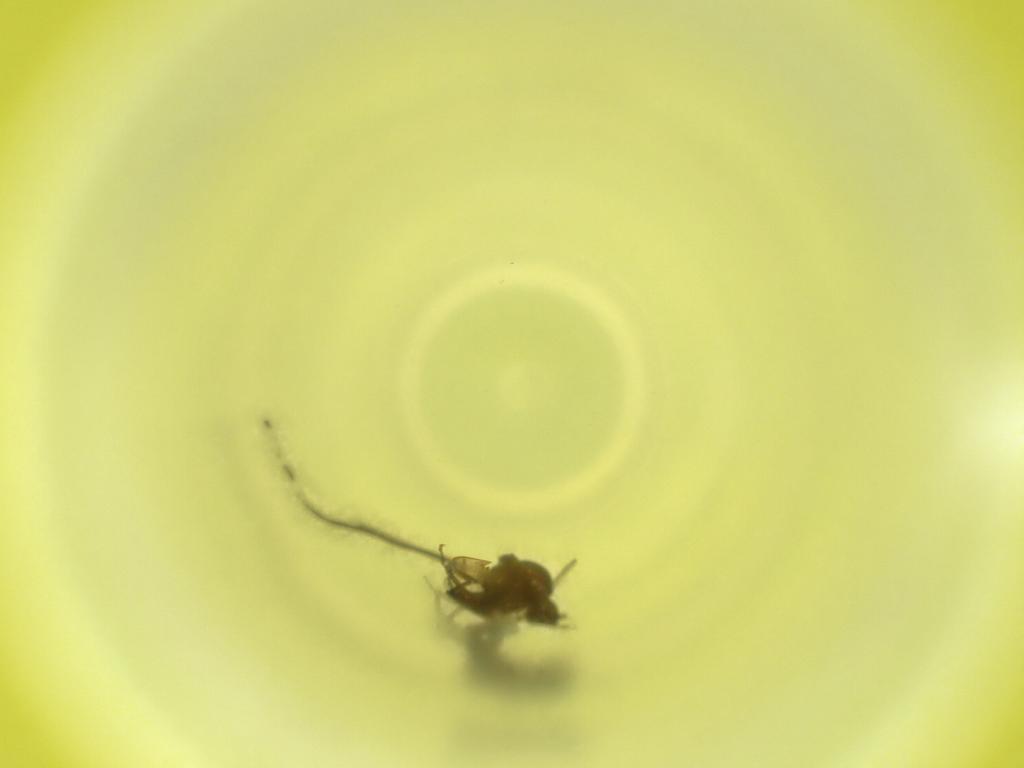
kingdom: Animalia
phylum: Arthropoda
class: Insecta
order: Diptera
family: Cecidomyiidae
